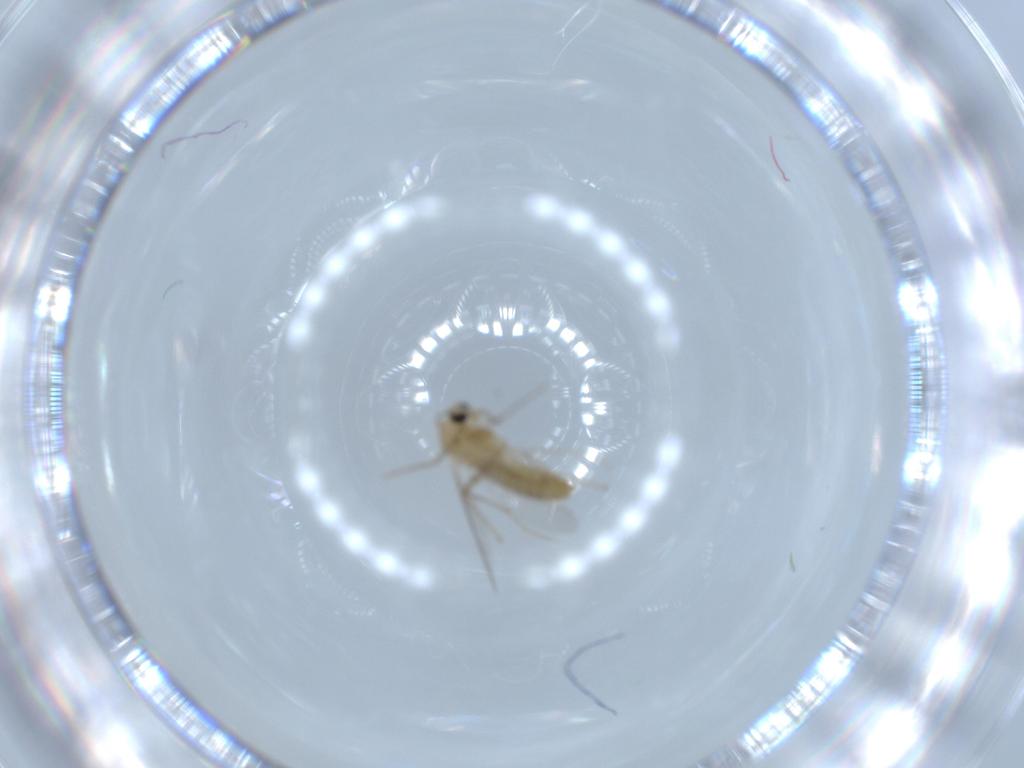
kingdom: Animalia
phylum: Arthropoda
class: Insecta
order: Diptera
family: Chironomidae
